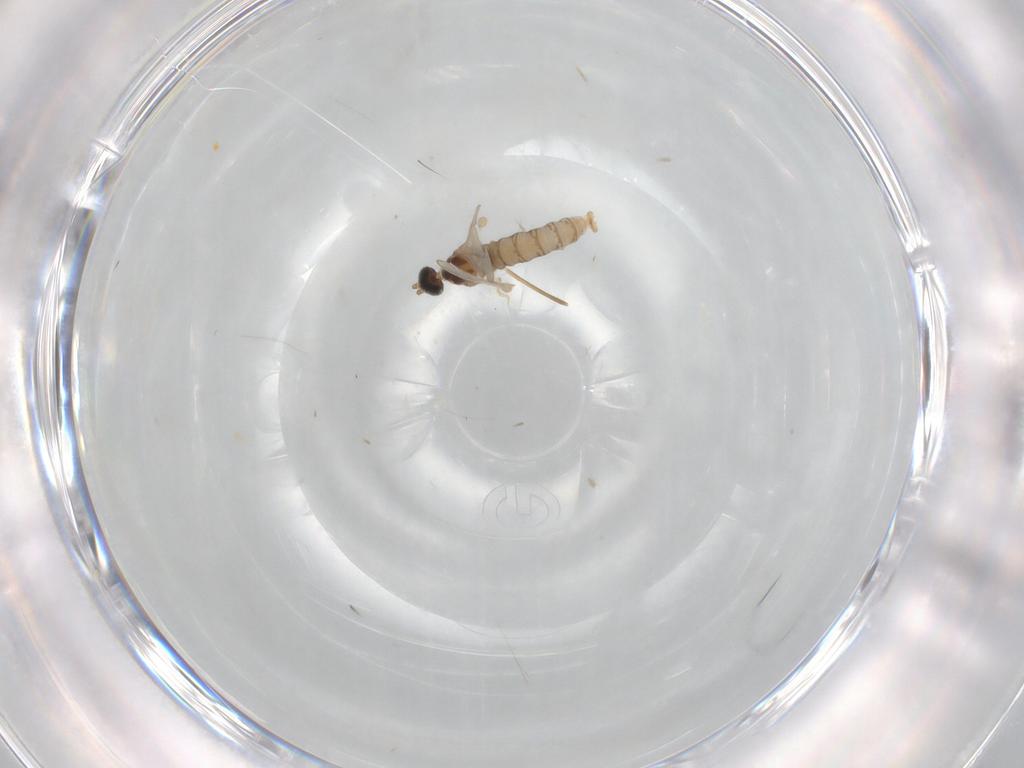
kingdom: Animalia
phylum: Arthropoda
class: Insecta
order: Diptera
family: Cecidomyiidae
